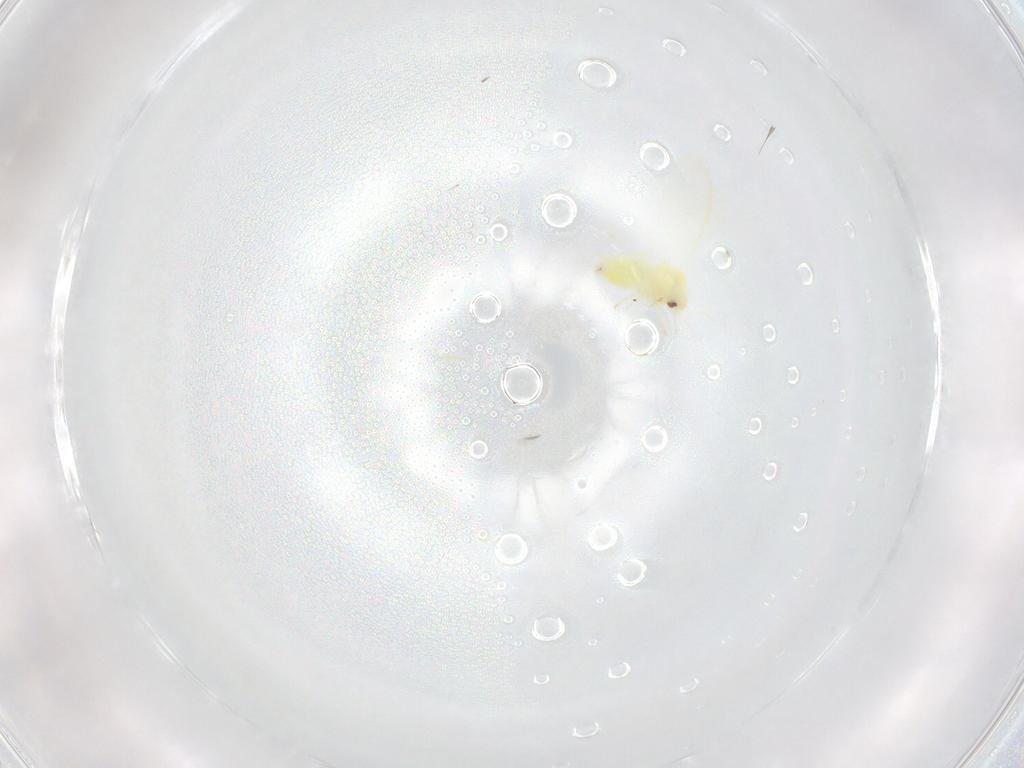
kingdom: Animalia
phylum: Arthropoda
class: Insecta
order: Hemiptera
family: Aleyrodidae
